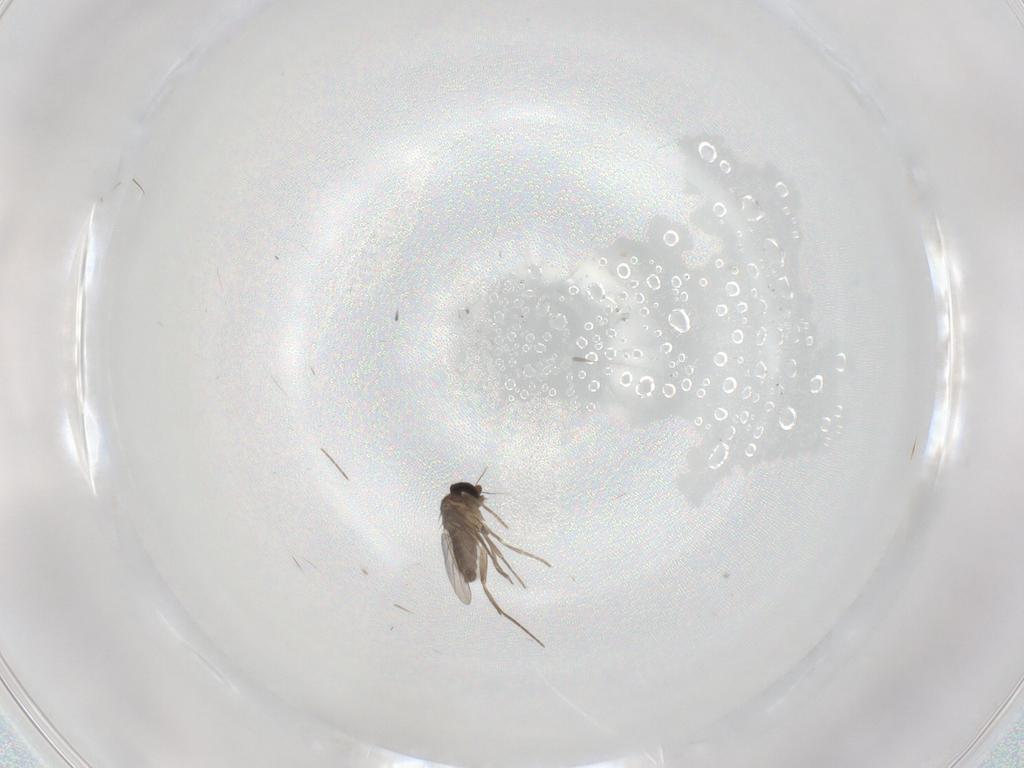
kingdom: Animalia
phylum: Arthropoda
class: Insecta
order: Diptera
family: Phoridae
